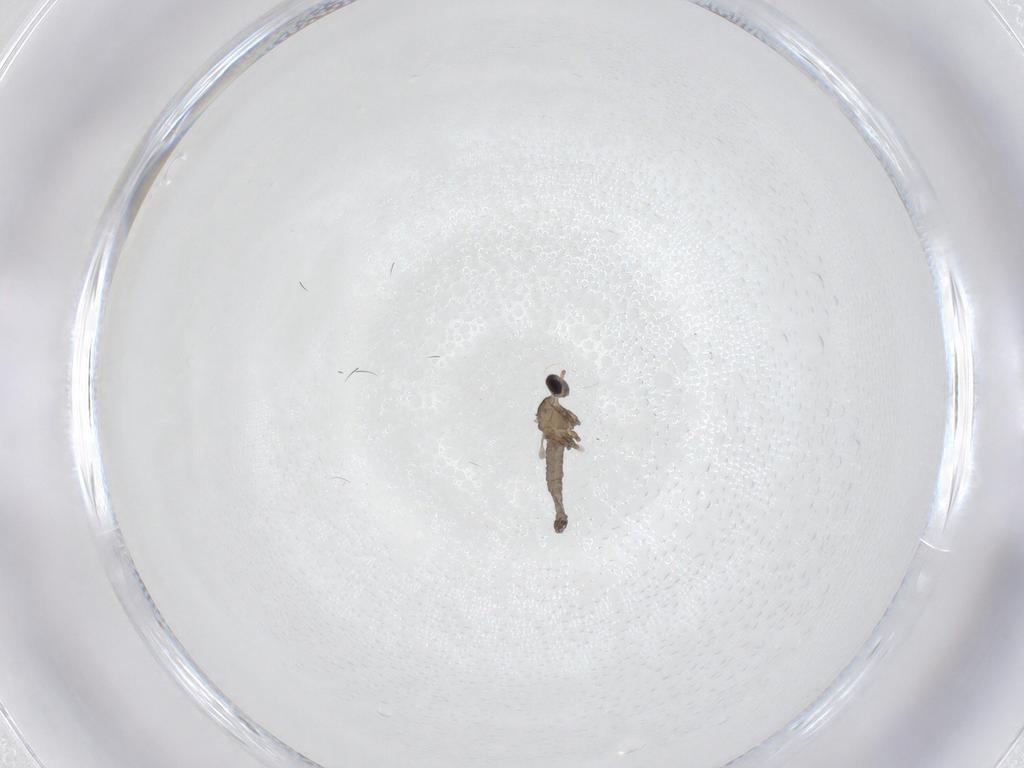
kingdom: Animalia
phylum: Arthropoda
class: Insecta
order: Diptera
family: Cecidomyiidae
